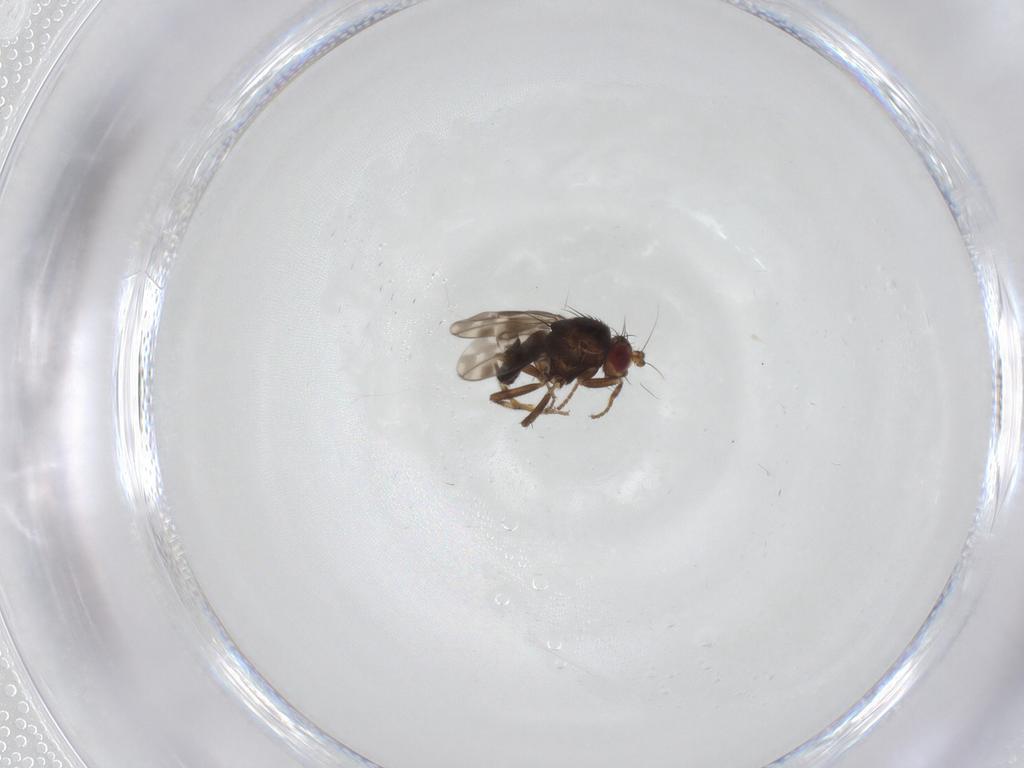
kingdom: Animalia
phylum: Arthropoda
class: Insecta
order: Diptera
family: Sphaeroceridae
